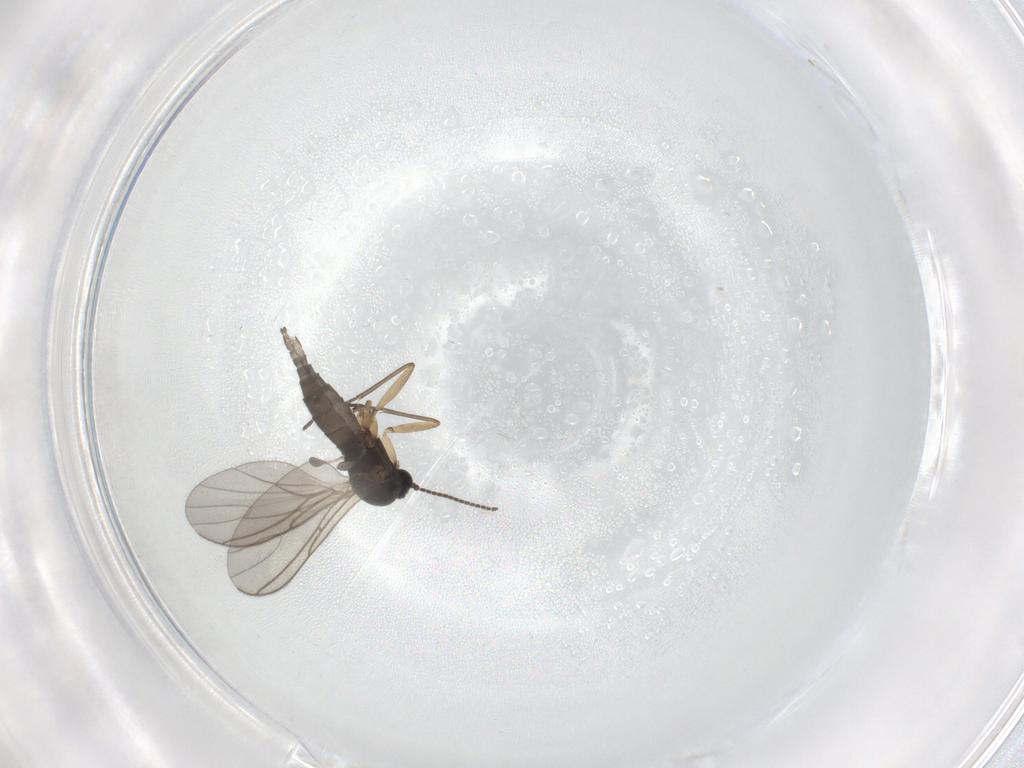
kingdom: Animalia
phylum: Arthropoda
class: Insecta
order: Diptera
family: Sciaridae
